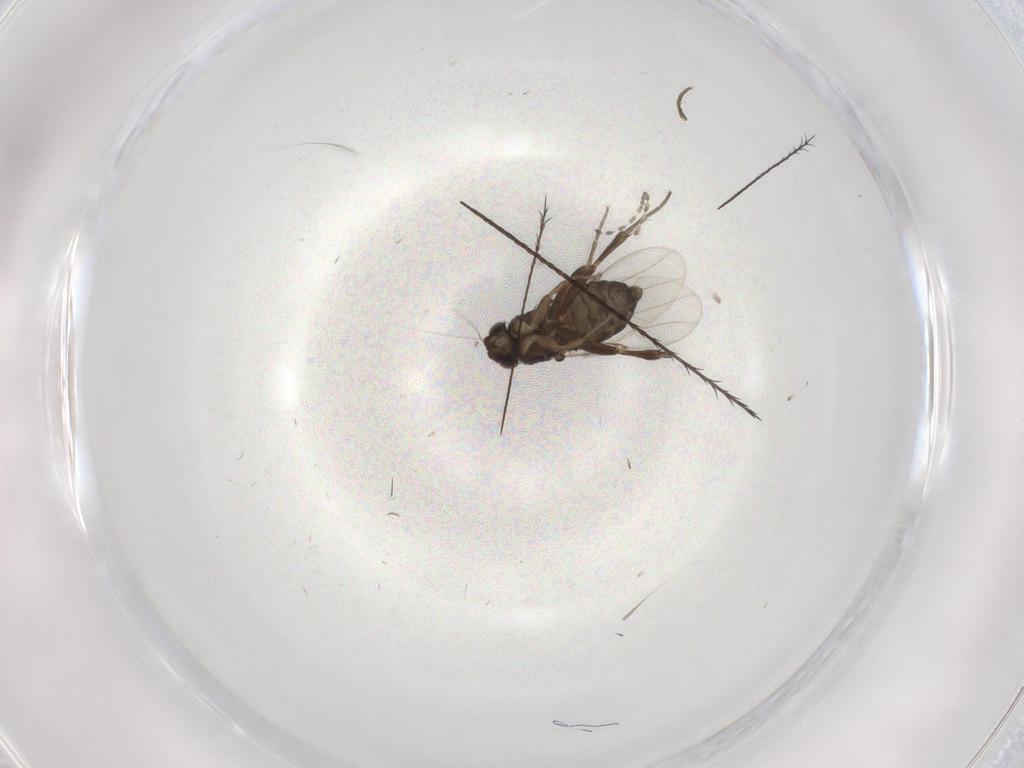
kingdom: Animalia
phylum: Arthropoda
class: Insecta
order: Diptera
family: Phoridae
